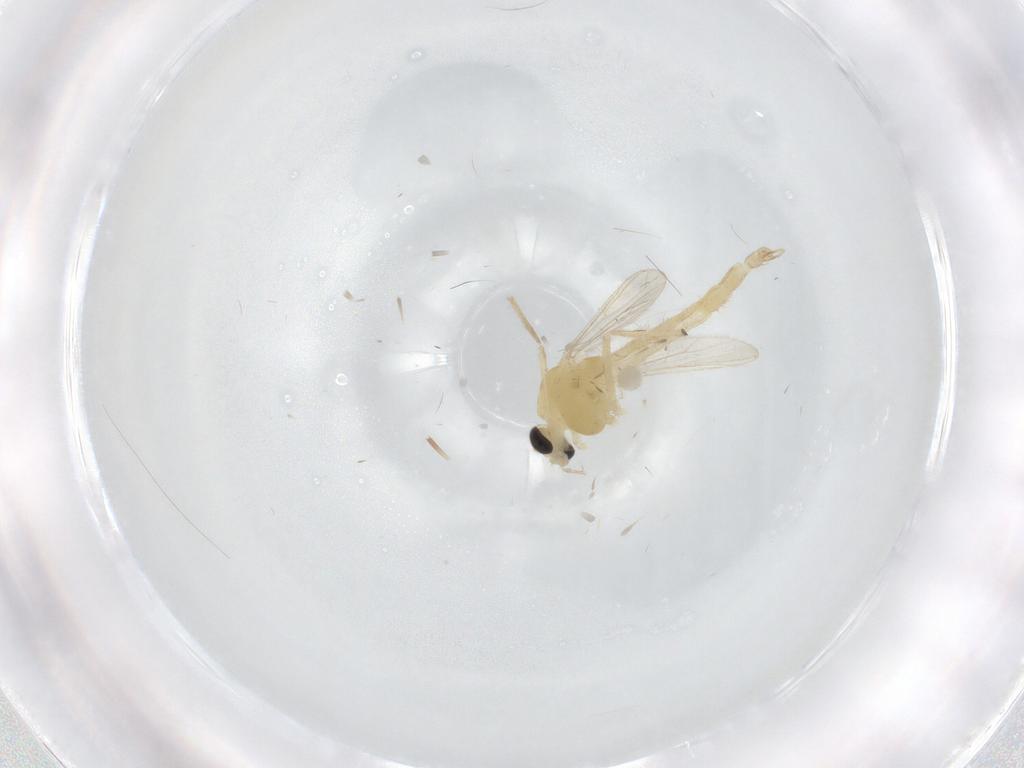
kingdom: Animalia
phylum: Arthropoda
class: Insecta
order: Diptera
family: Chironomidae
